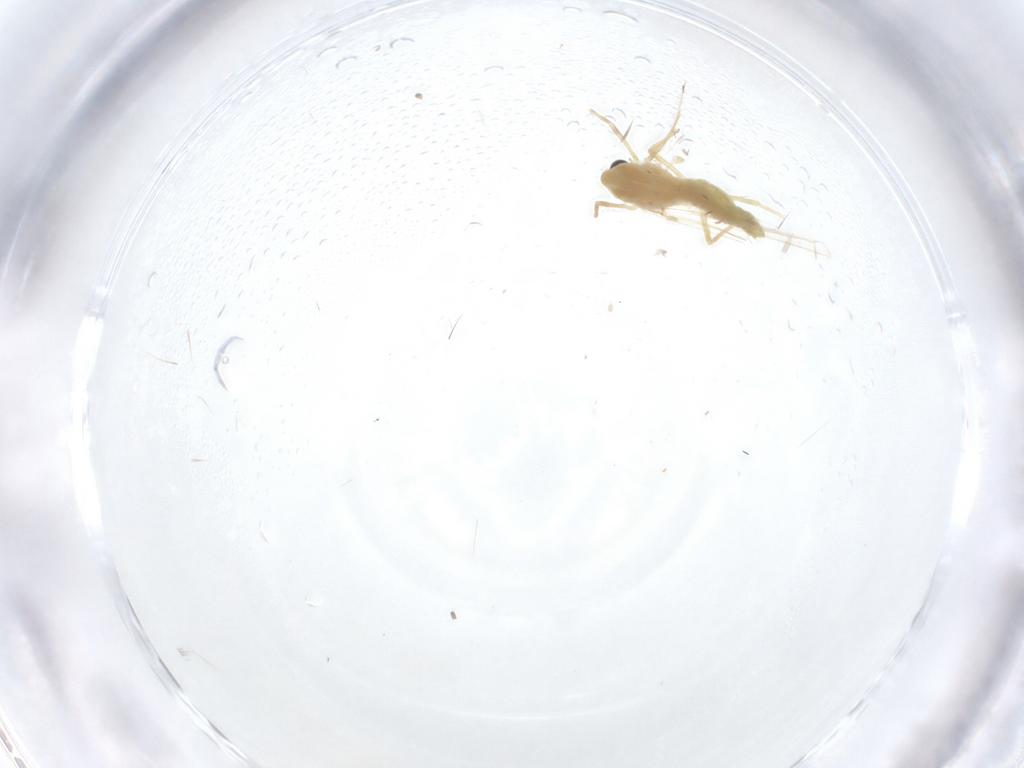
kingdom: Animalia
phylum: Arthropoda
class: Insecta
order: Diptera
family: Chironomidae
